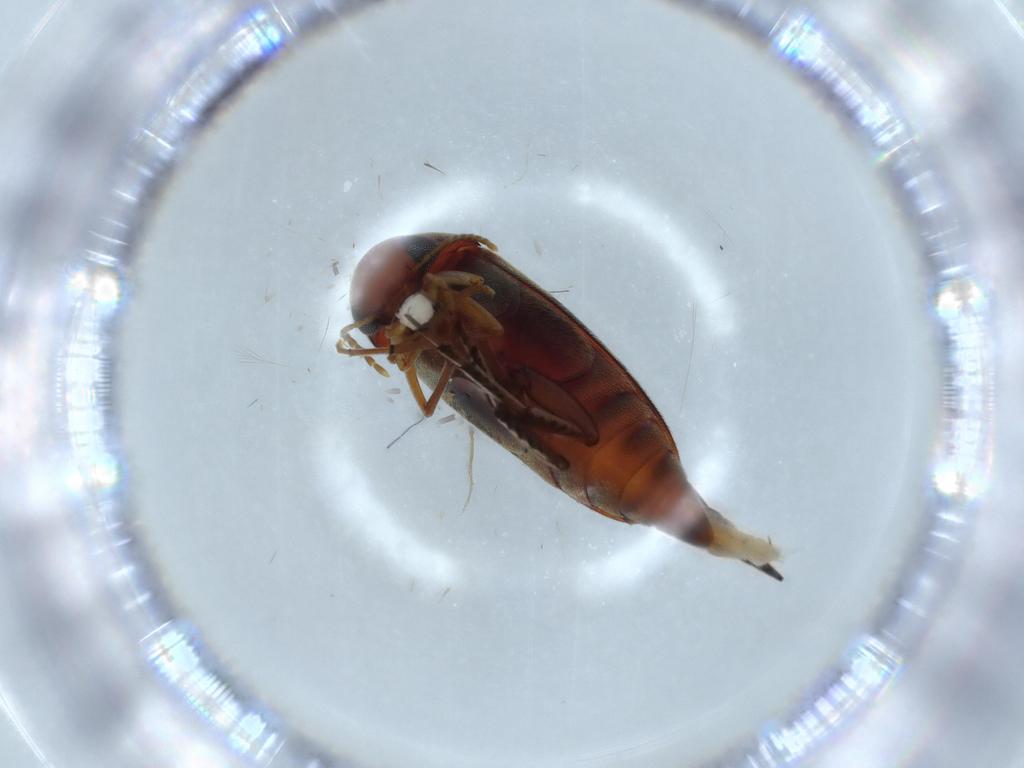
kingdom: Animalia
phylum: Arthropoda
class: Insecta
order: Coleoptera
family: Mordellidae
